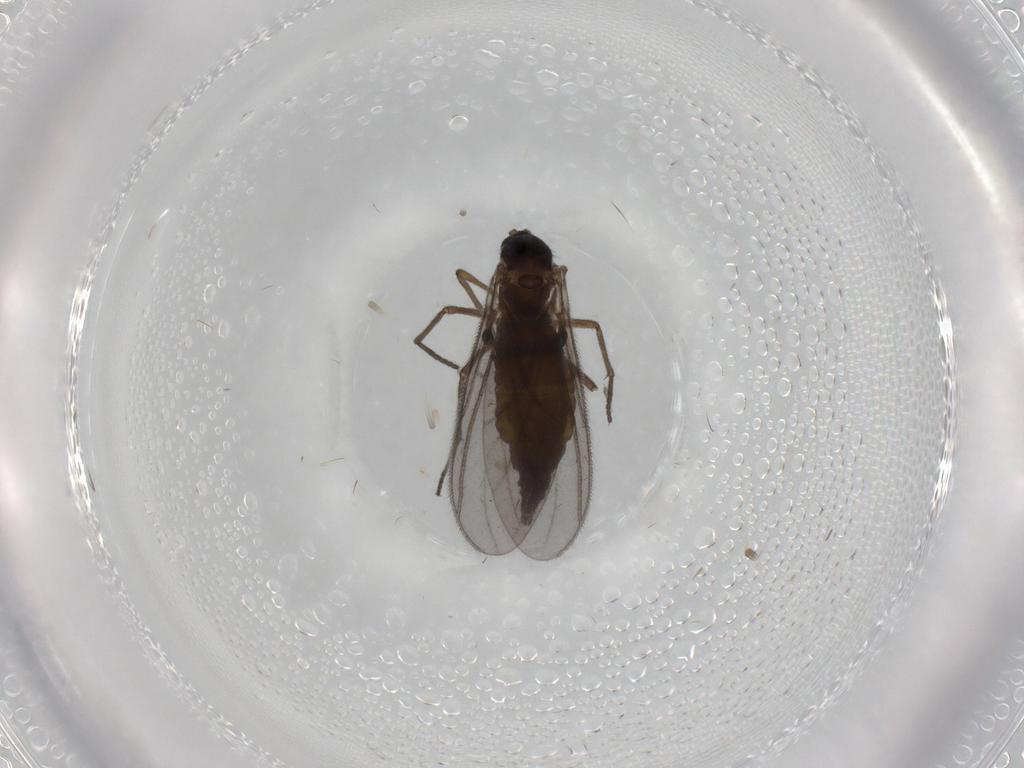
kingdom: Animalia
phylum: Arthropoda
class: Insecta
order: Diptera
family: Sciaridae
